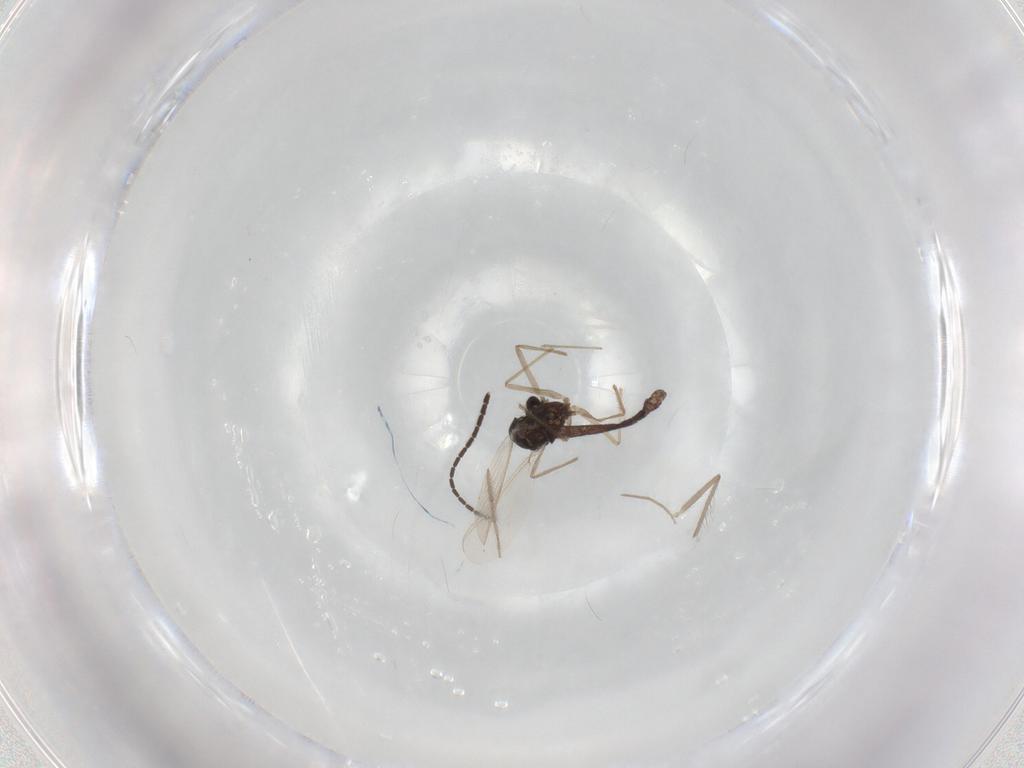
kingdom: Animalia
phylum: Arthropoda
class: Insecta
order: Diptera
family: Chironomidae
